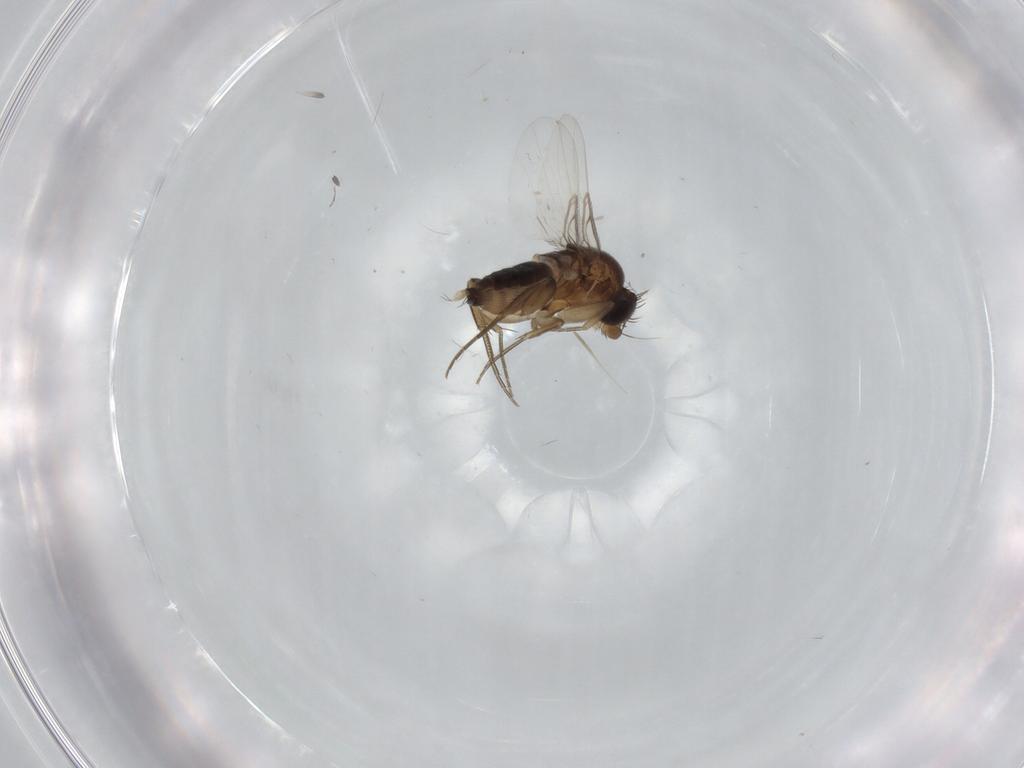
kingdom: Animalia
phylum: Arthropoda
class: Insecta
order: Diptera
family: Phoridae
